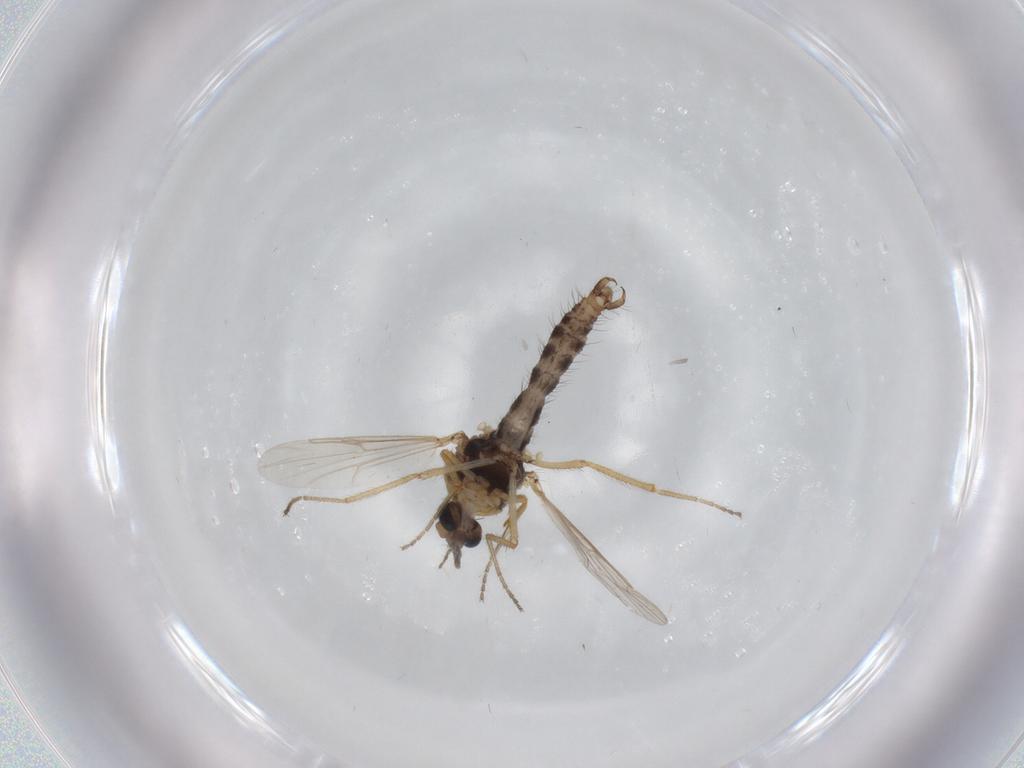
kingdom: Animalia
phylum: Arthropoda
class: Insecta
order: Diptera
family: Ceratopogonidae
